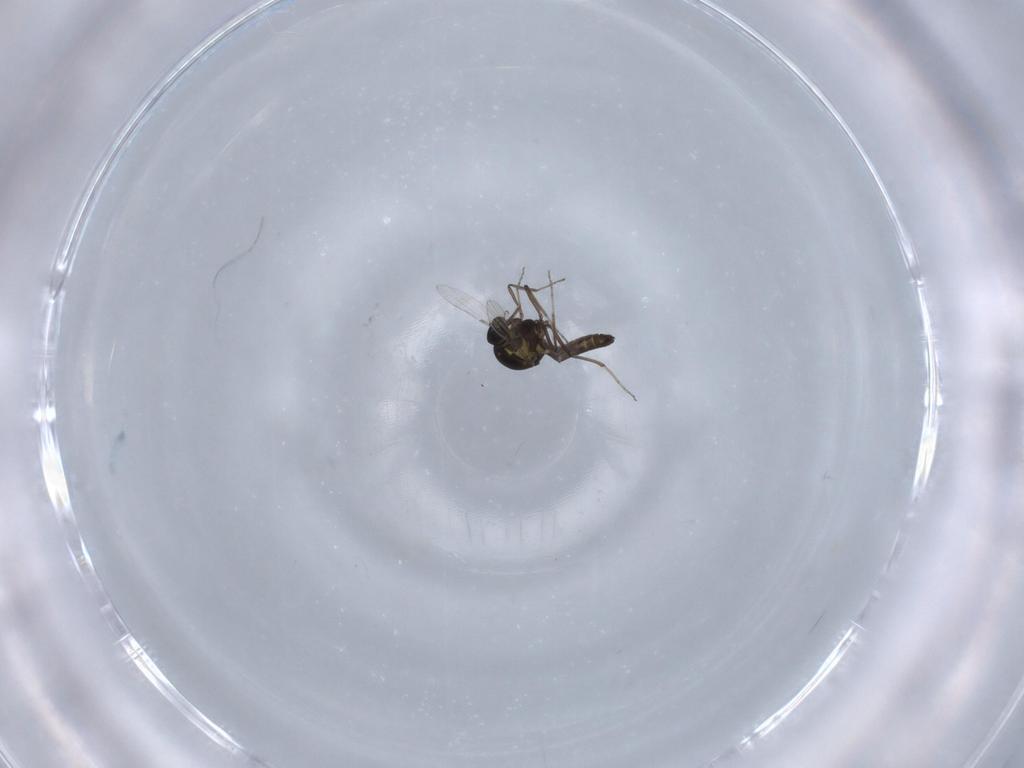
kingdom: Animalia
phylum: Arthropoda
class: Insecta
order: Diptera
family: Ceratopogonidae
